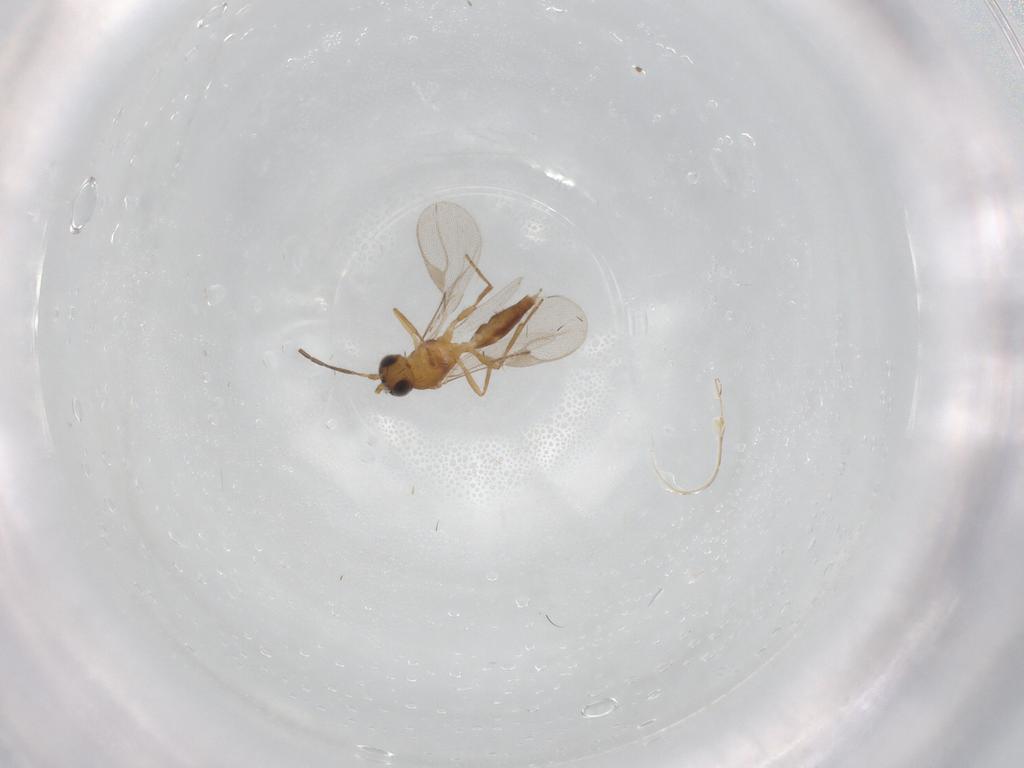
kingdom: Animalia
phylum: Arthropoda
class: Insecta
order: Hymenoptera
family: Braconidae
